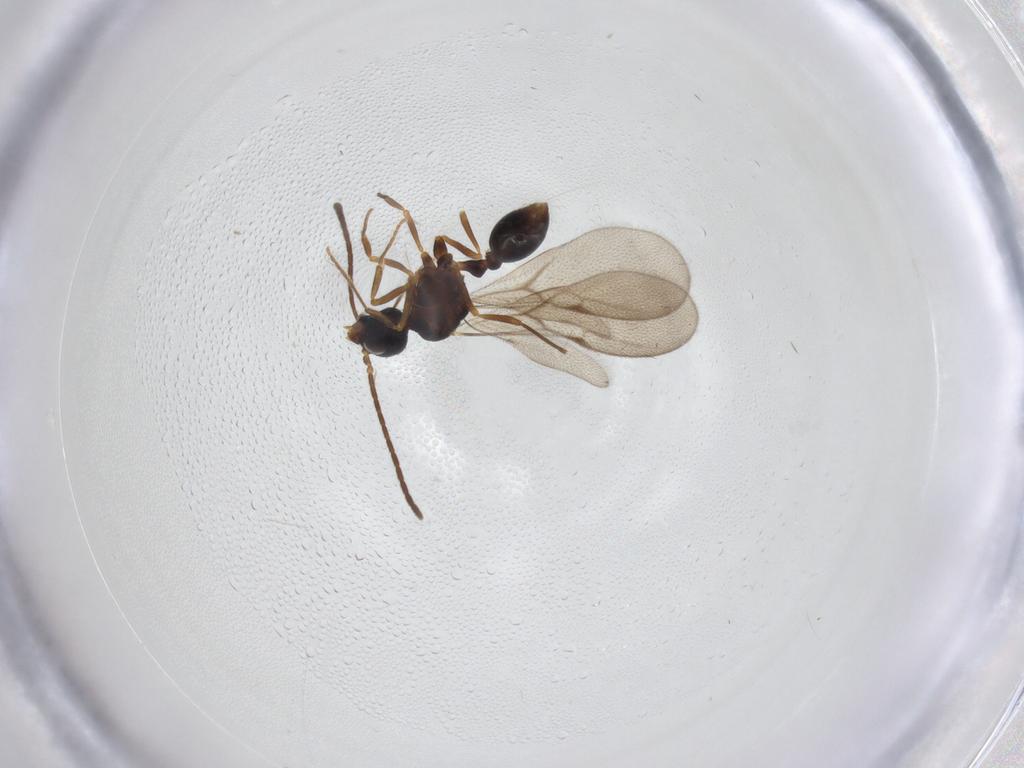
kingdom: Animalia
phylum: Arthropoda
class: Insecta
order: Hymenoptera
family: Formicidae
